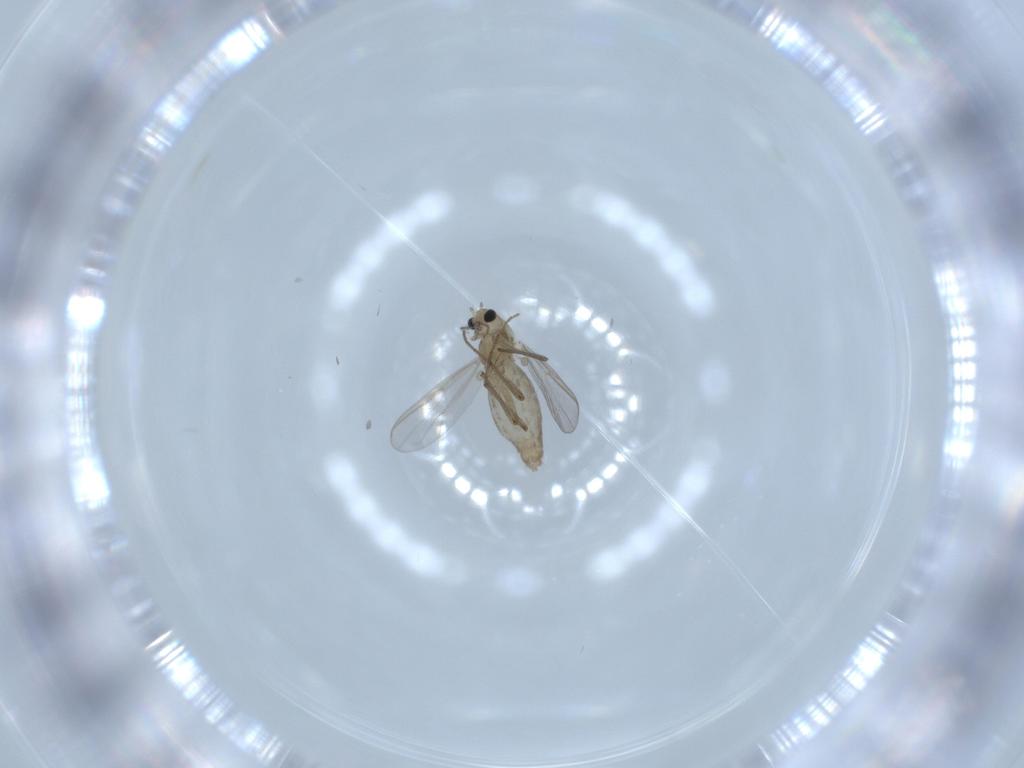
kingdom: Animalia
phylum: Arthropoda
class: Insecta
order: Diptera
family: Chironomidae
